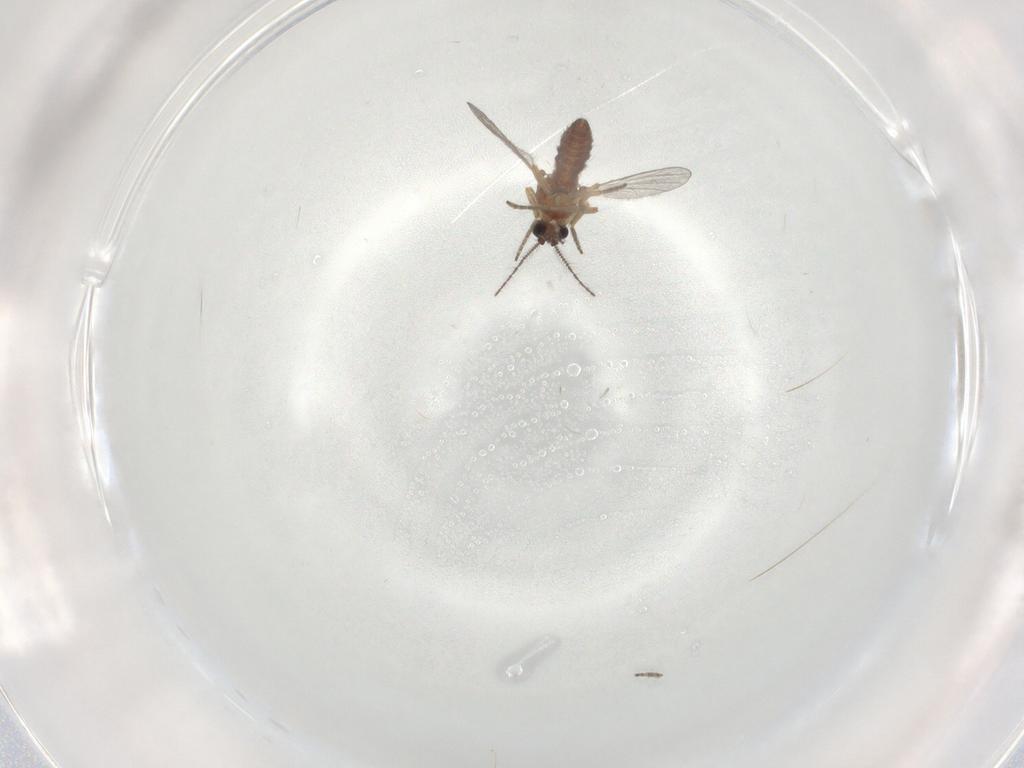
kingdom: Animalia
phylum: Arthropoda
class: Insecta
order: Diptera
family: Ceratopogonidae
